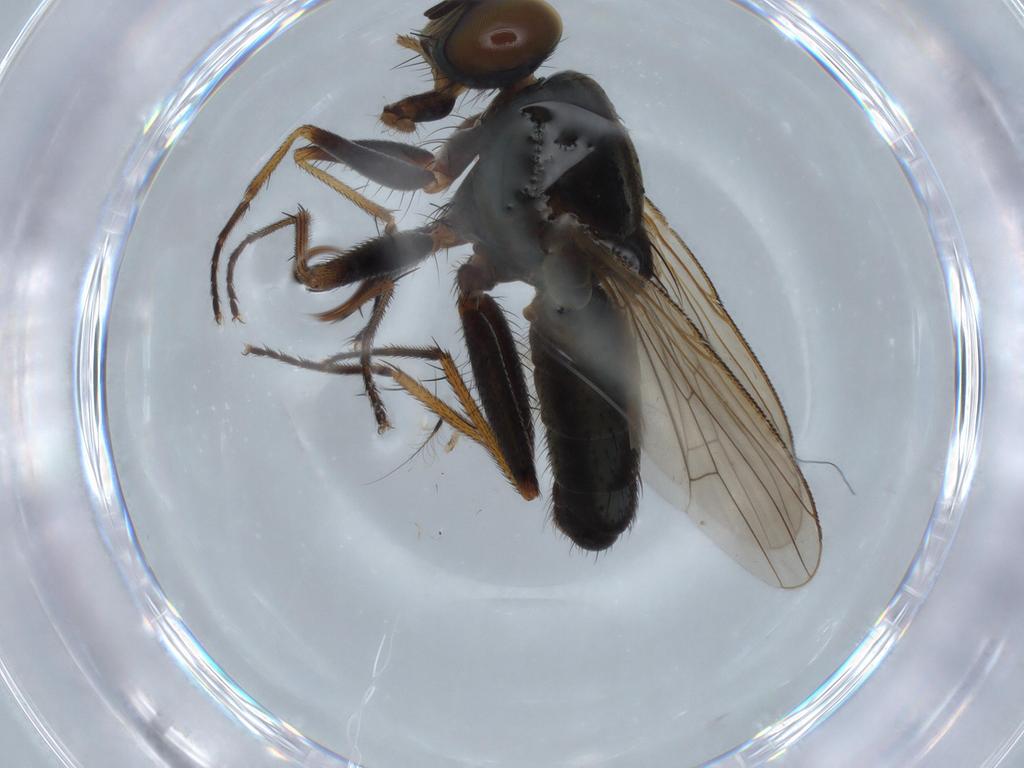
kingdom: Animalia
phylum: Arthropoda
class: Insecta
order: Diptera
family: Muscidae
